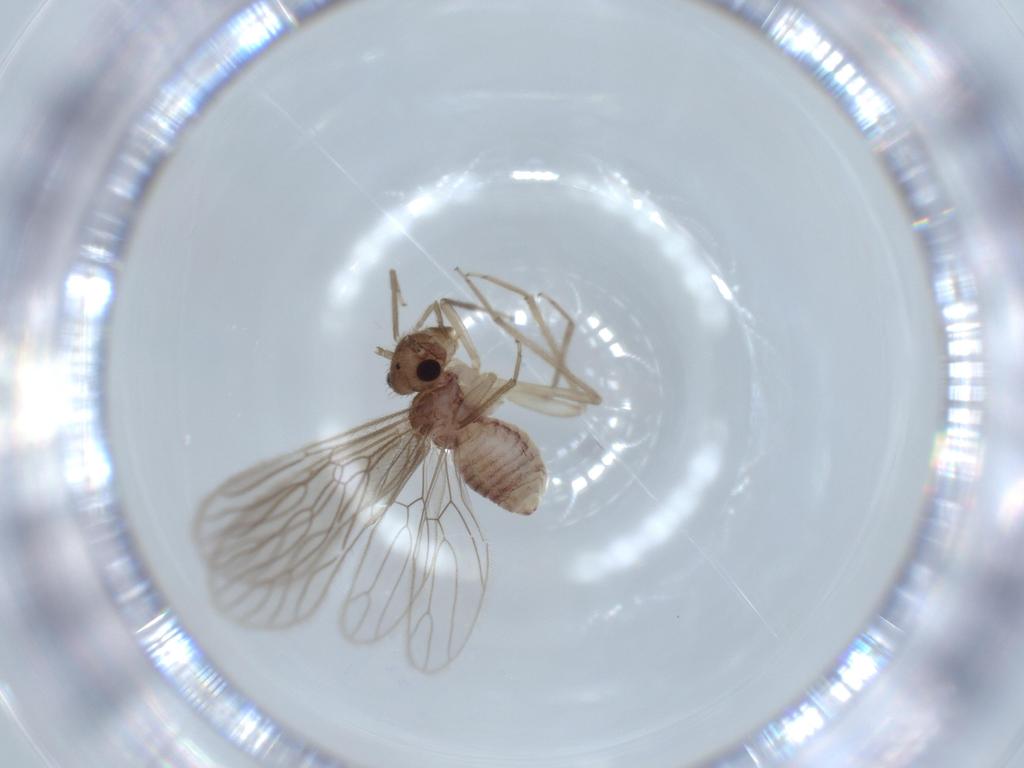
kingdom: Animalia
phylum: Arthropoda
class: Insecta
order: Psocodea
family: Cladiopsocidae
